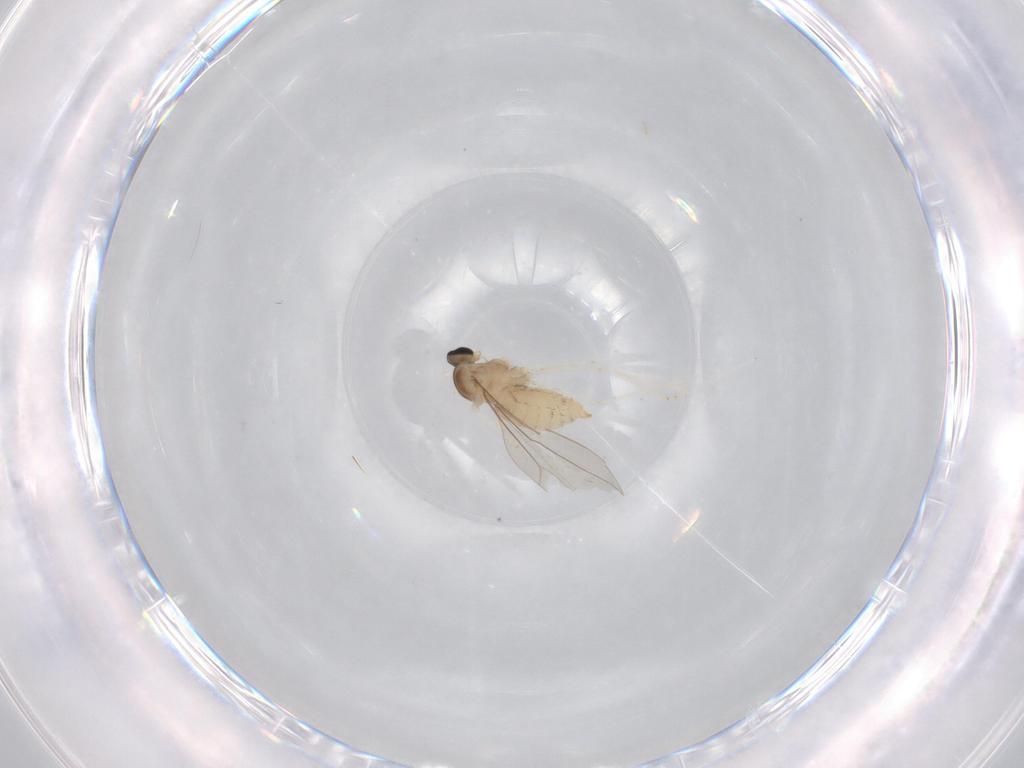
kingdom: Animalia
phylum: Arthropoda
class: Insecta
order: Diptera
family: Cecidomyiidae
